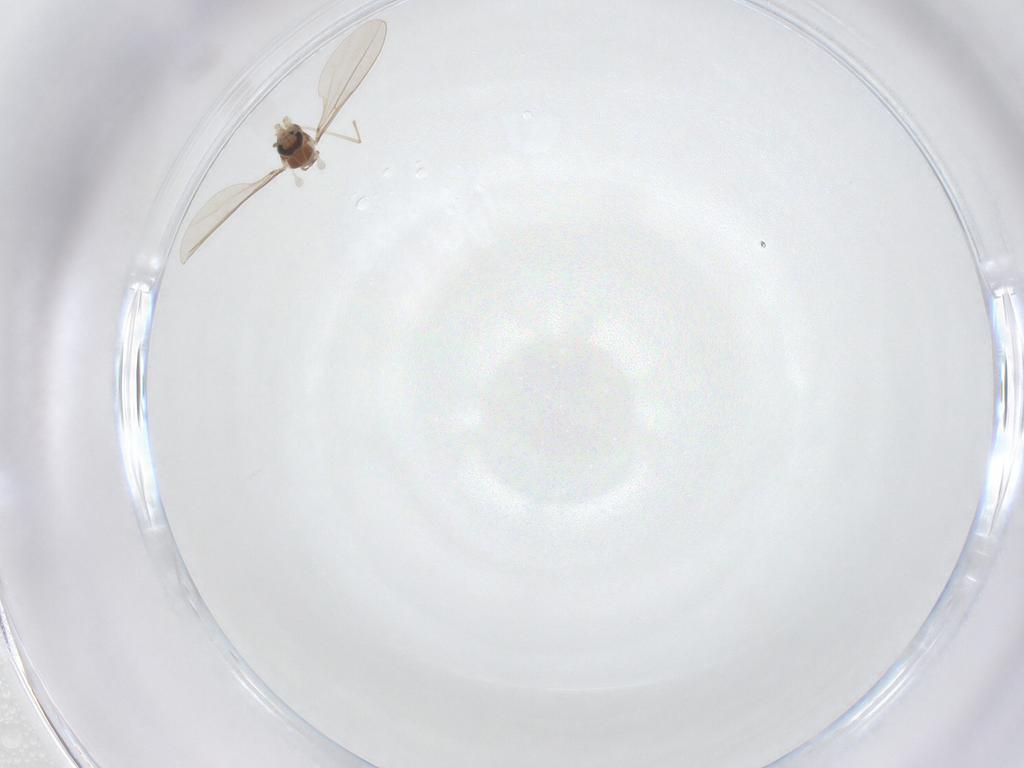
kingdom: Animalia
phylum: Arthropoda
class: Insecta
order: Diptera
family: Cecidomyiidae
